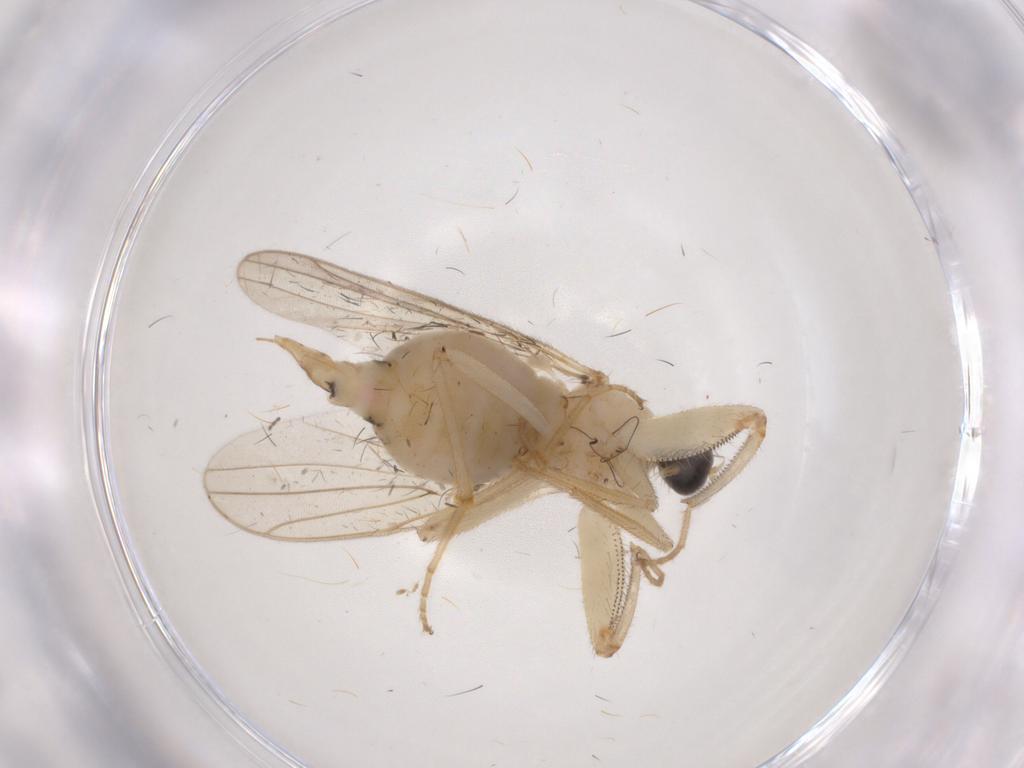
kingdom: Animalia
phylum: Arthropoda
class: Insecta
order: Diptera
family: Hybotidae
